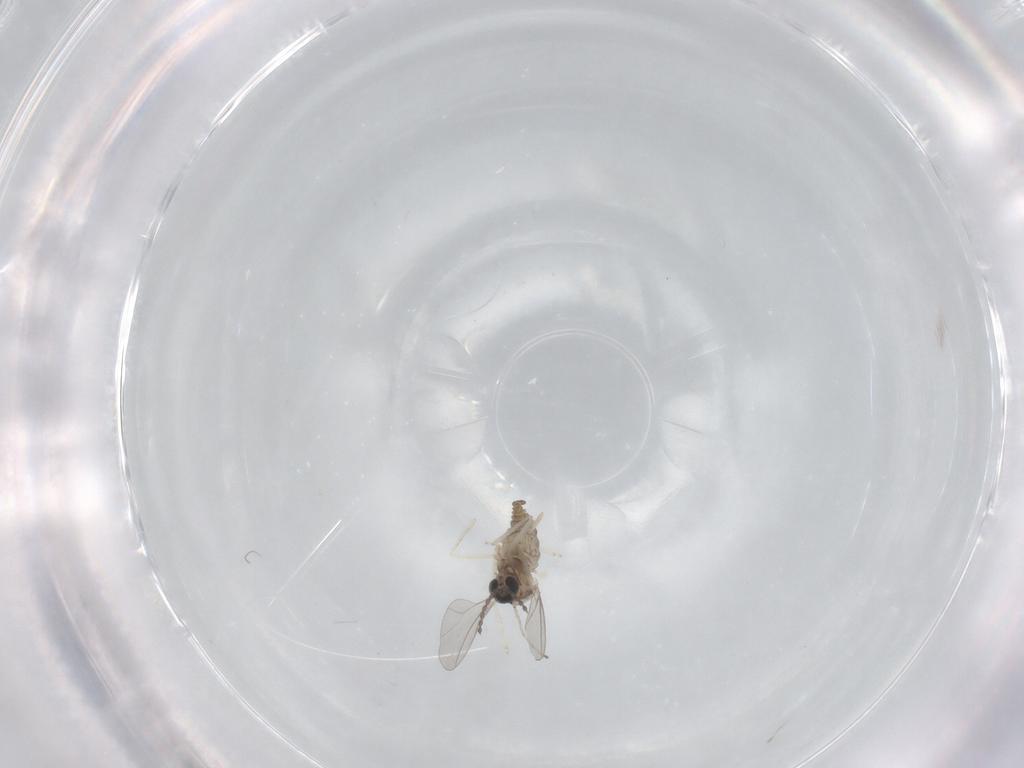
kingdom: Animalia
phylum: Arthropoda
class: Insecta
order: Diptera
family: Cecidomyiidae
